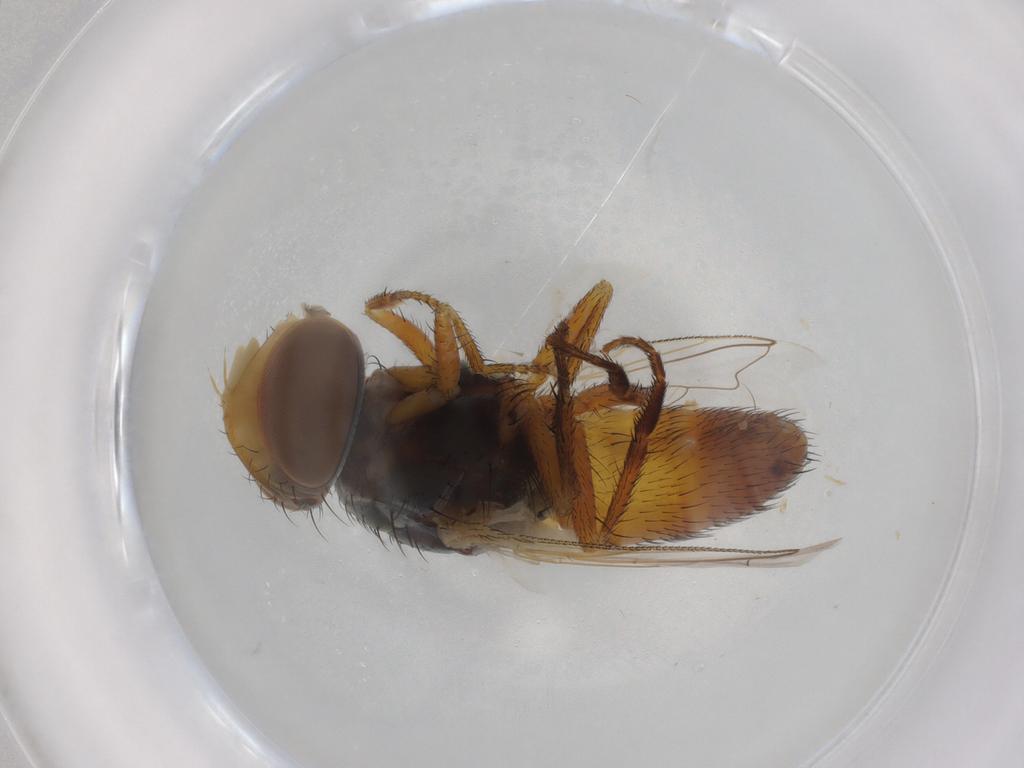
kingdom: Animalia
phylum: Arthropoda
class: Insecta
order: Diptera
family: Sarcophagidae
